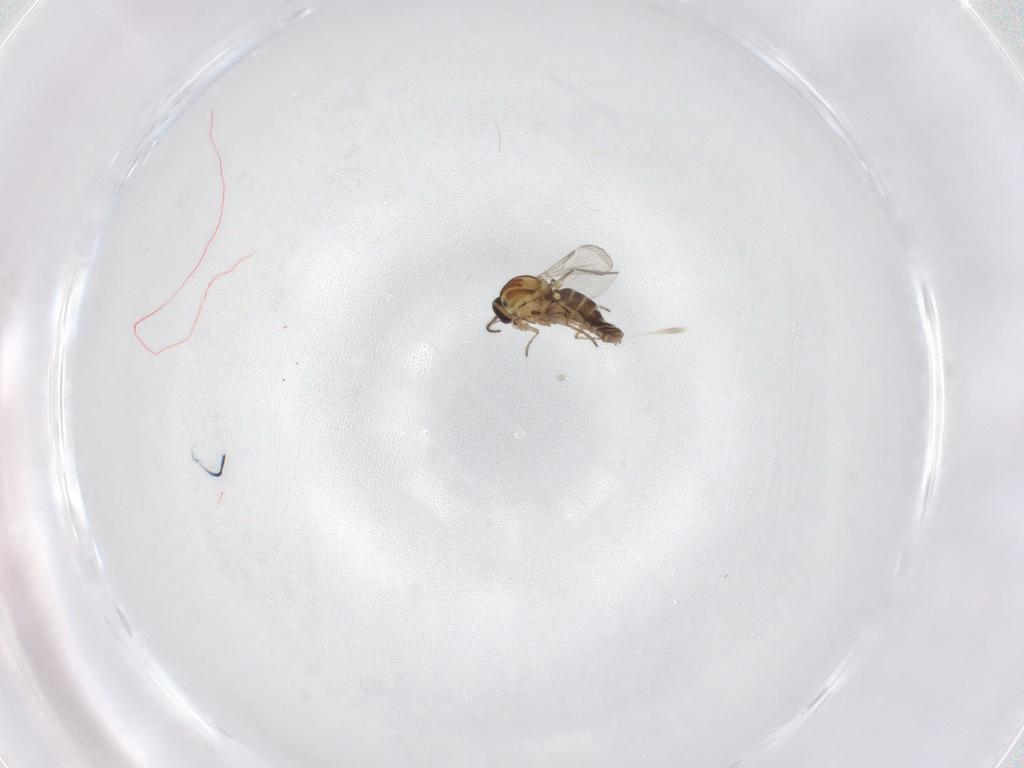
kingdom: Animalia
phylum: Arthropoda
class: Insecta
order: Diptera
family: Ceratopogonidae
